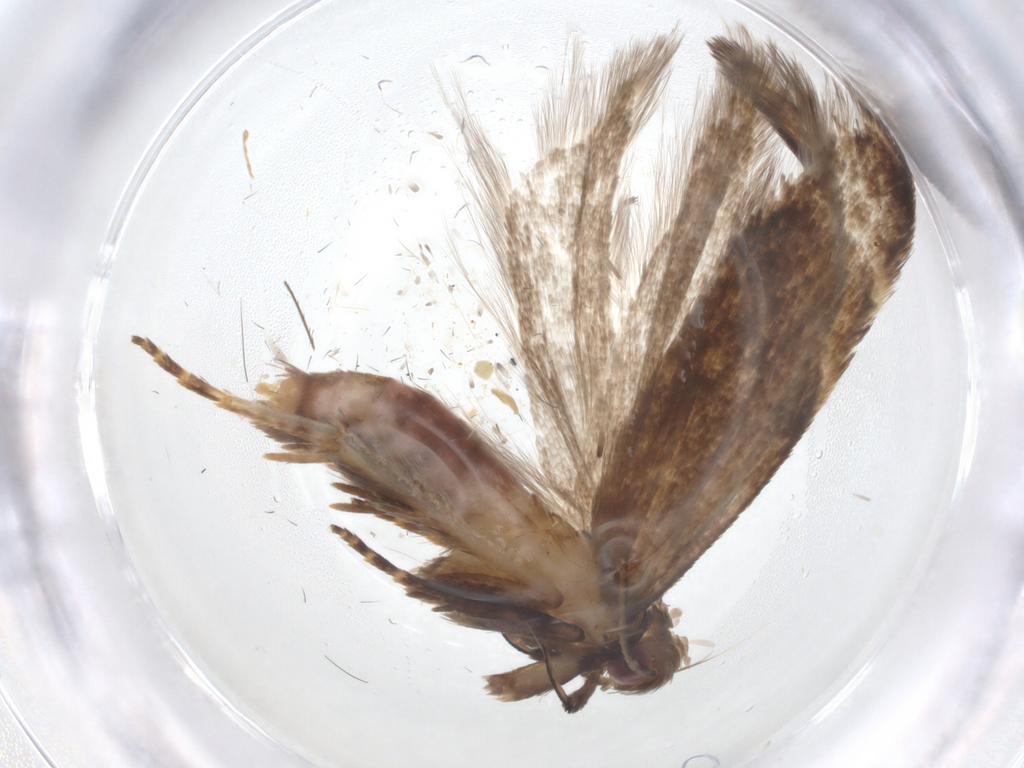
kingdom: Animalia
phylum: Arthropoda
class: Insecta
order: Lepidoptera
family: Gelechiidae
